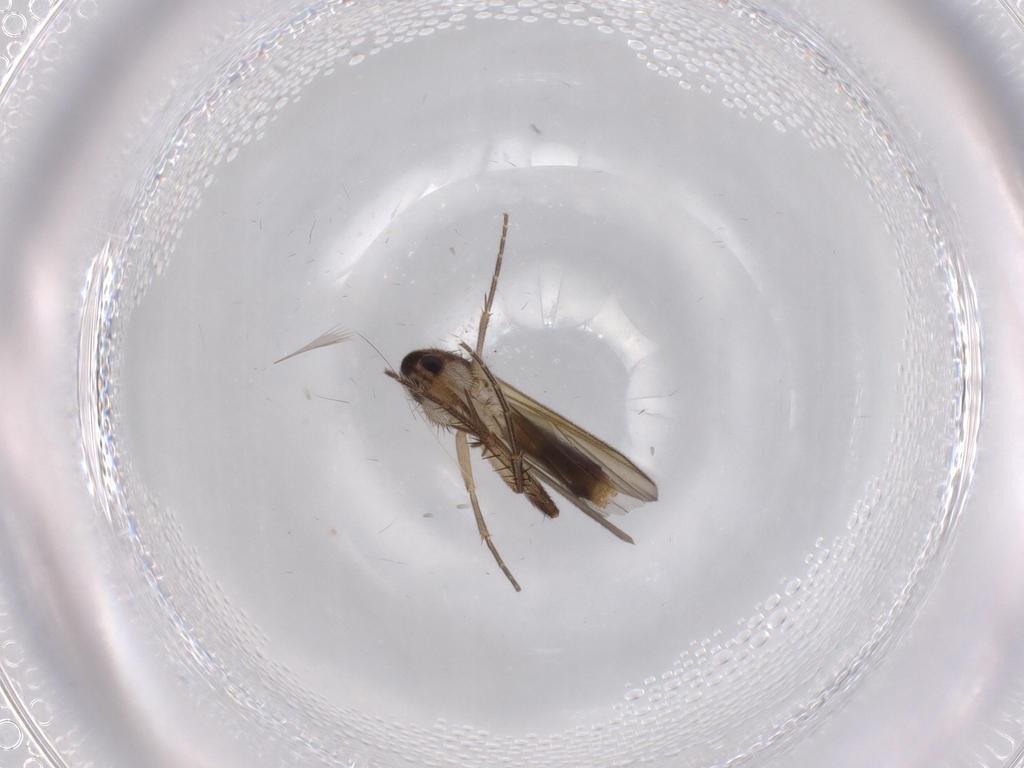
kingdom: Animalia
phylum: Arthropoda
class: Insecta
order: Diptera
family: Mycetophilidae
